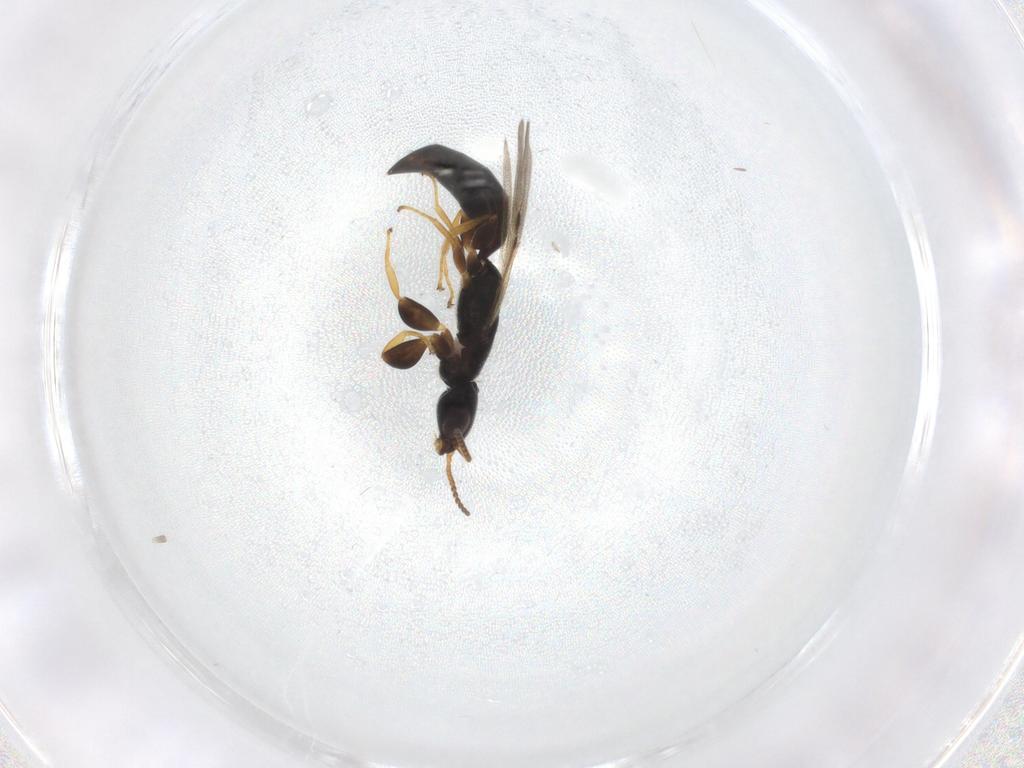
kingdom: Animalia
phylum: Arthropoda
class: Insecta
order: Hymenoptera
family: Bethylidae
